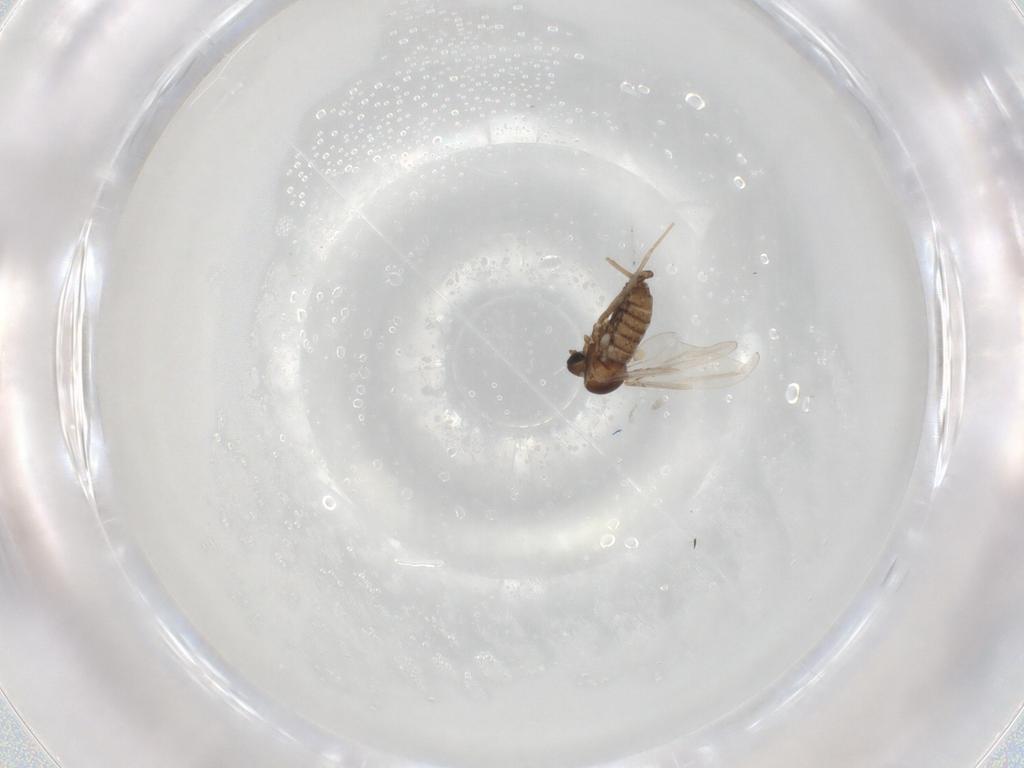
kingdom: Animalia
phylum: Arthropoda
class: Insecta
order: Diptera
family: Cecidomyiidae
